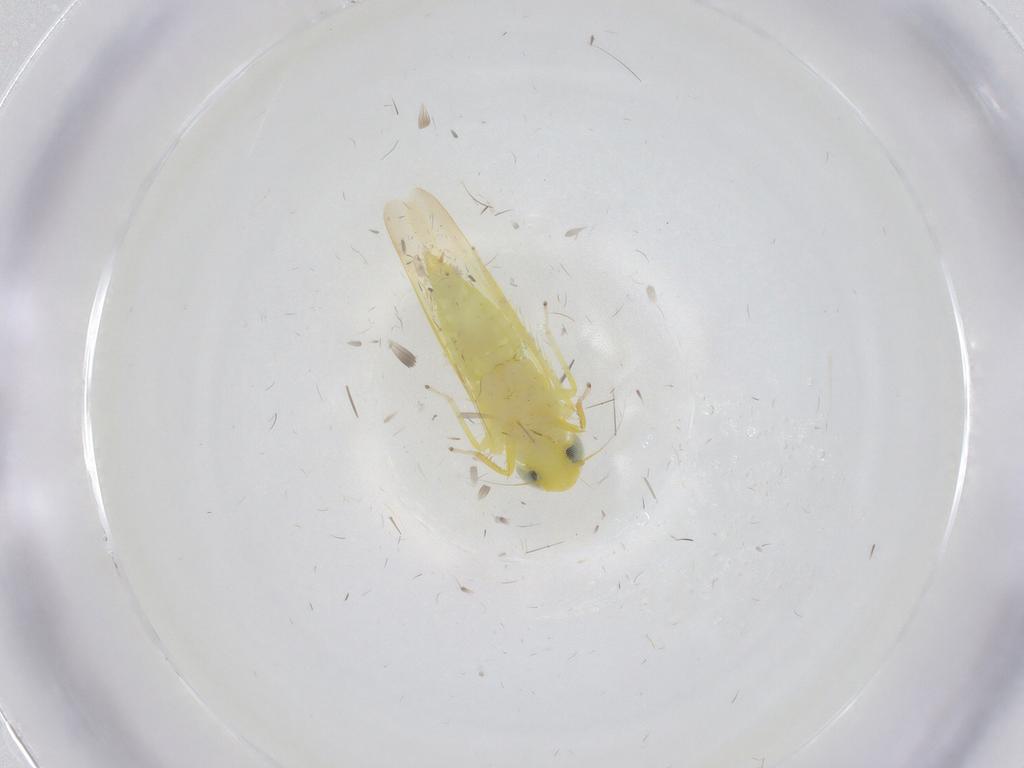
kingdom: Animalia
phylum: Arthropoda
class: Insecta
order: Hemiptera
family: Cicadellidae
